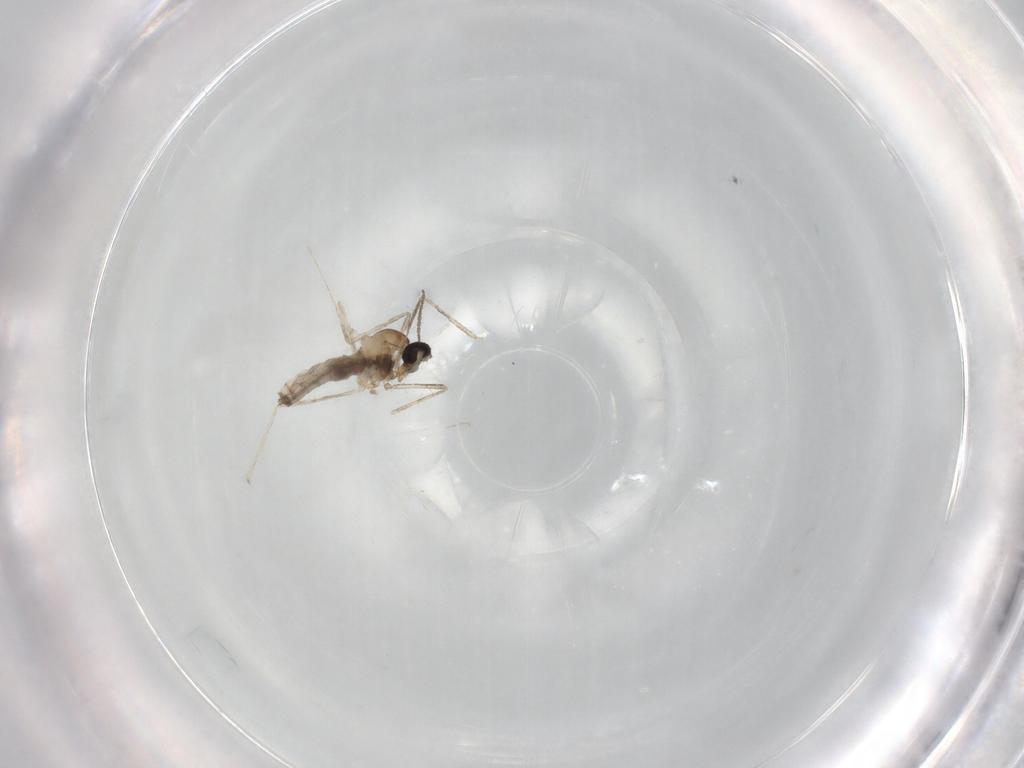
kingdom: Animalia
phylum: Arthropoda
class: Insecta
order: Diptera
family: Cecidomyiidae
